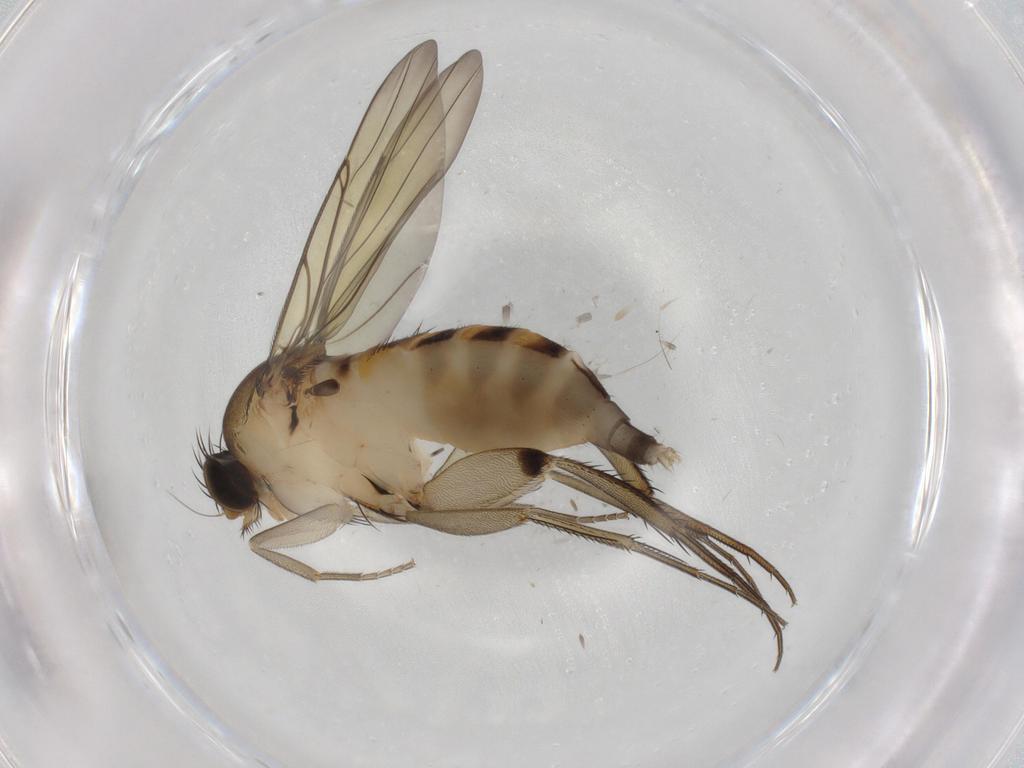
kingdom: Animalia
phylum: Arthropoda
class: Insecta
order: Diptera
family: Phoridae
